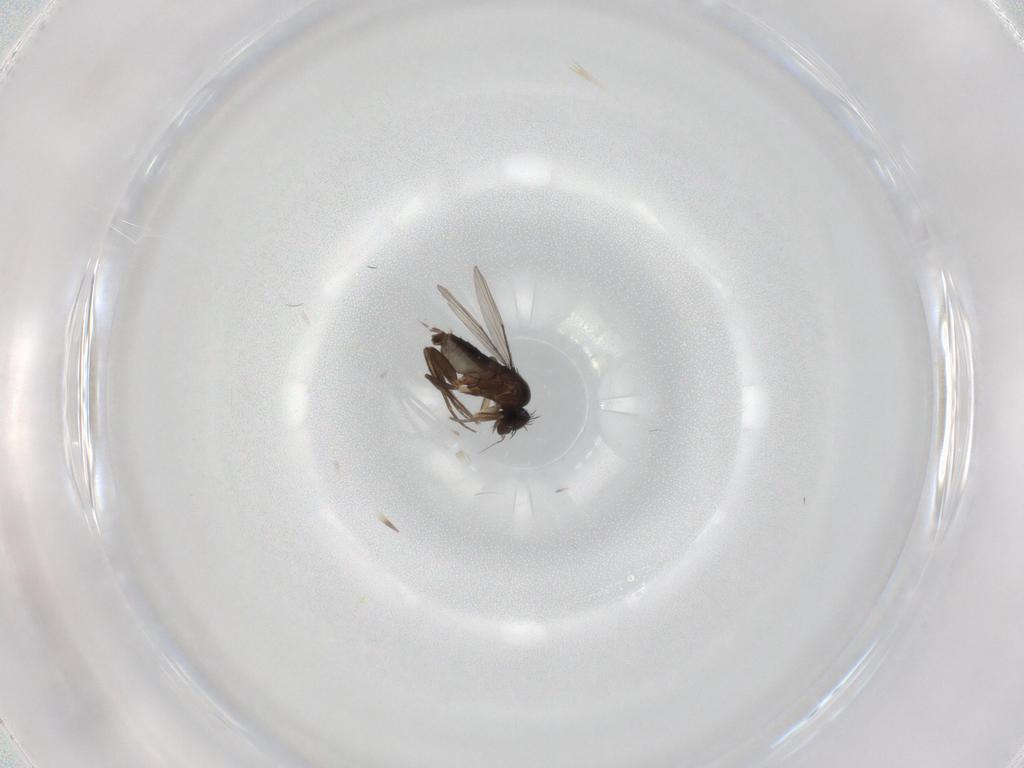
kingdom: Animalia
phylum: Arthropoda
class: Insecta
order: Diptera
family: Phoridae
